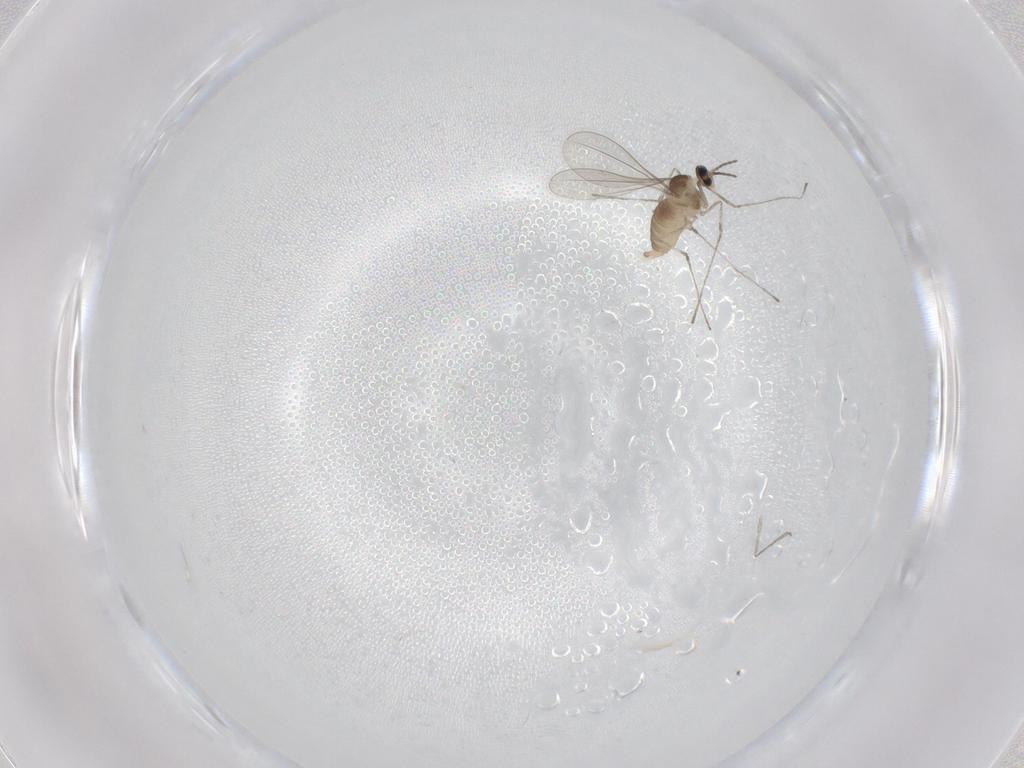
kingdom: Animalia
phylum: Arthropoda
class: Insecta
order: Diptera
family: Cecidomyiidae
